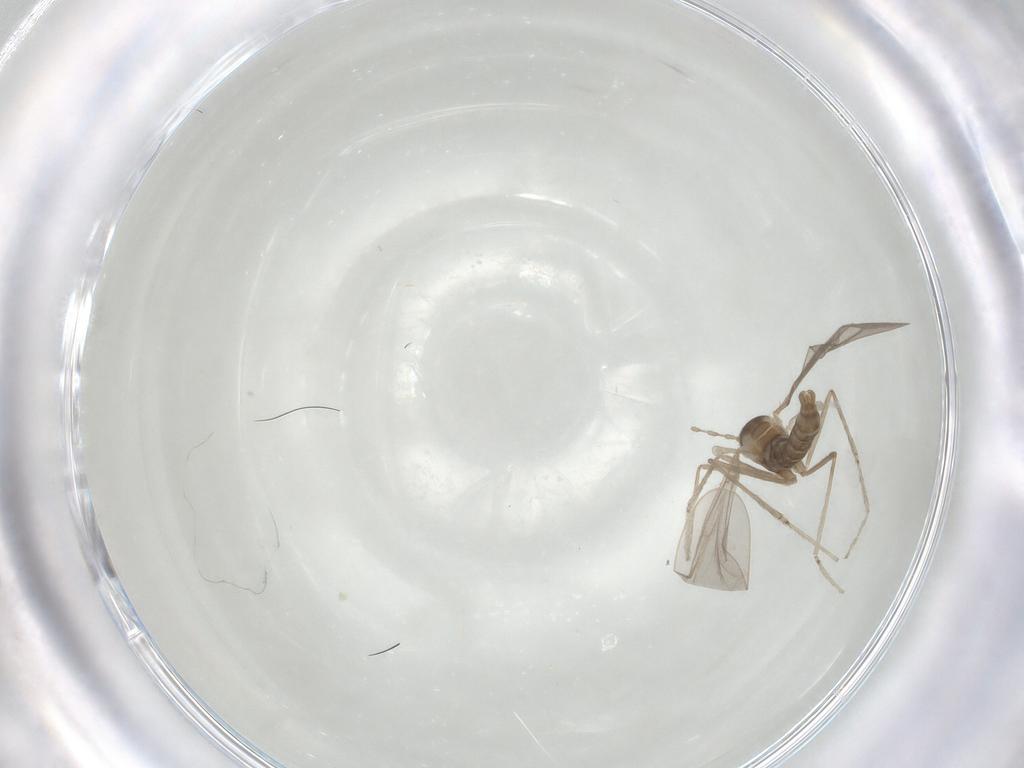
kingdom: Animalia
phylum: Arthropoda
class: Insecta
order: Diptera
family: Cecidomyiidae
